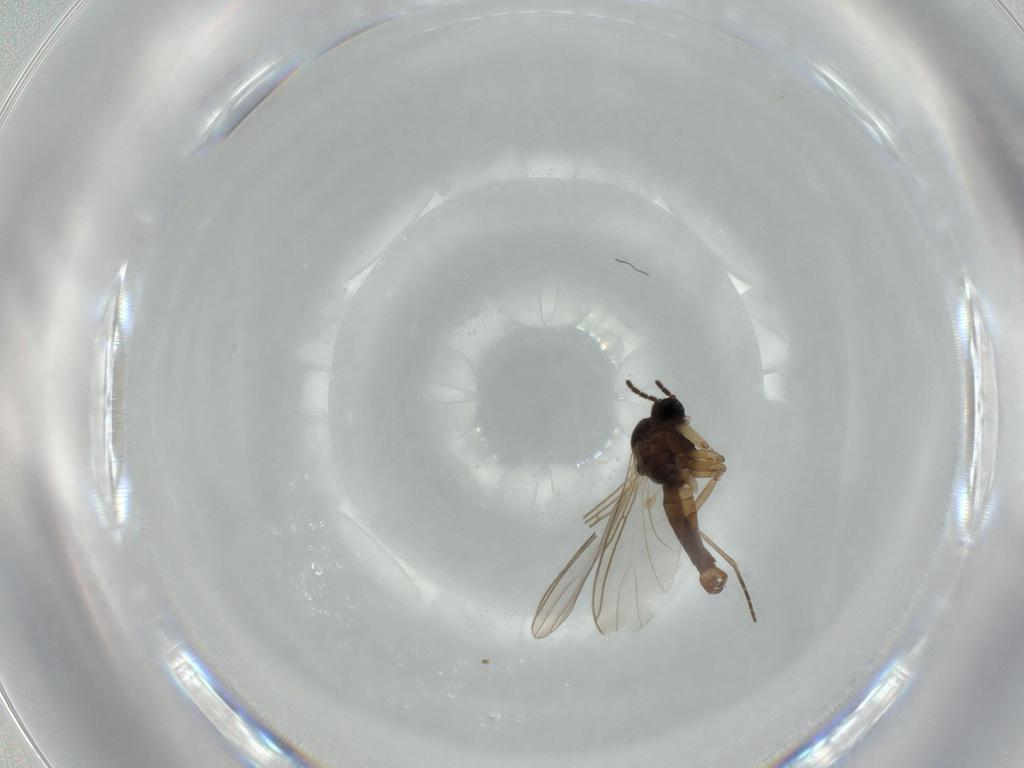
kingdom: Animalia
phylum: Arthropoda
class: Insecta
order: Diptera
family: Sciaridae
